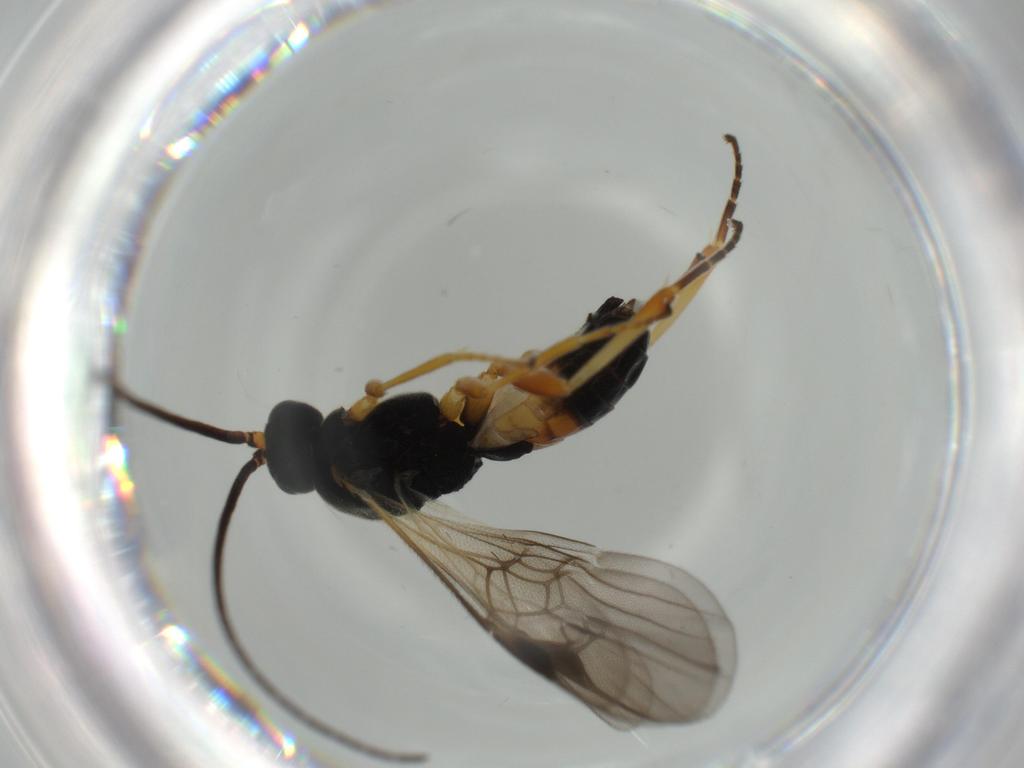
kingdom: Animalia
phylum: Arthropoda
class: Insecta
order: Hymenoptera
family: Braconidae
